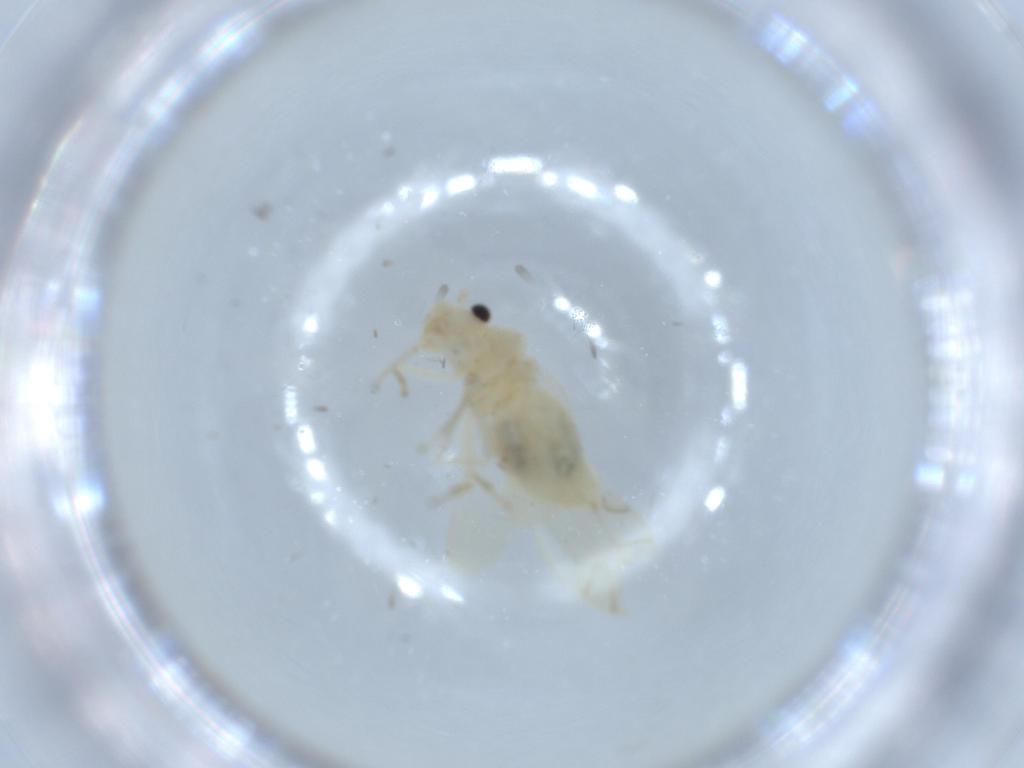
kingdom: Animalia
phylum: Arthropoda
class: Insecta
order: Psocodea
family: Caeciliusidae
